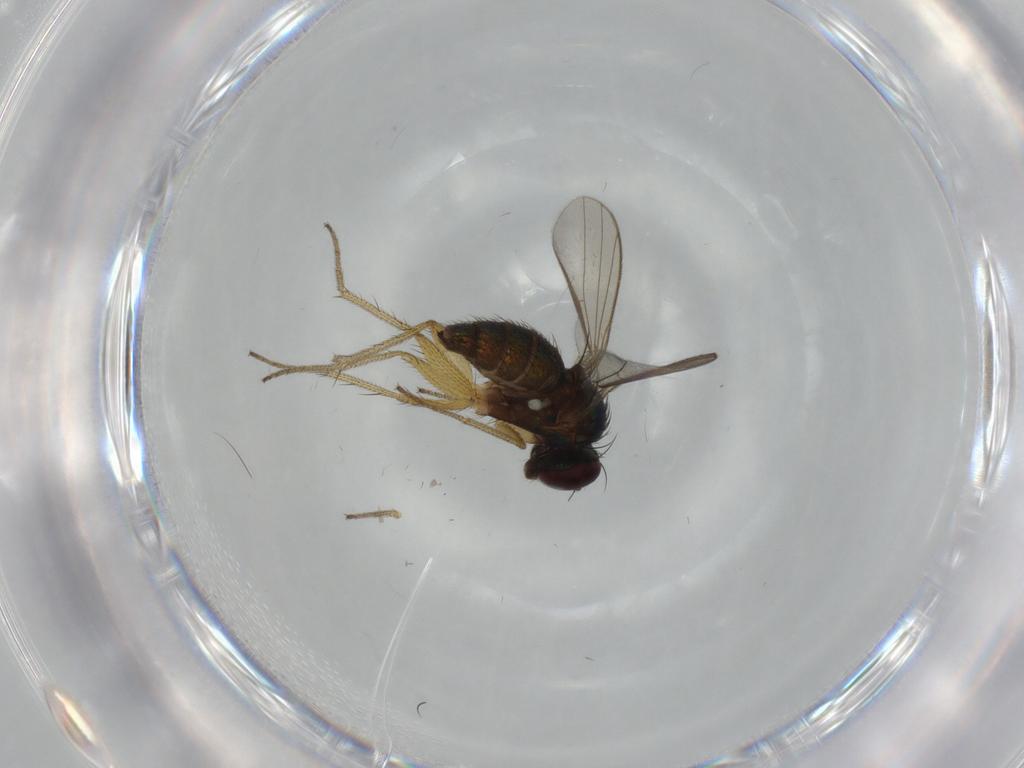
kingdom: Animalia
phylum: Arthropoda
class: Insecta
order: Diptera
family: Dolichopodidae
